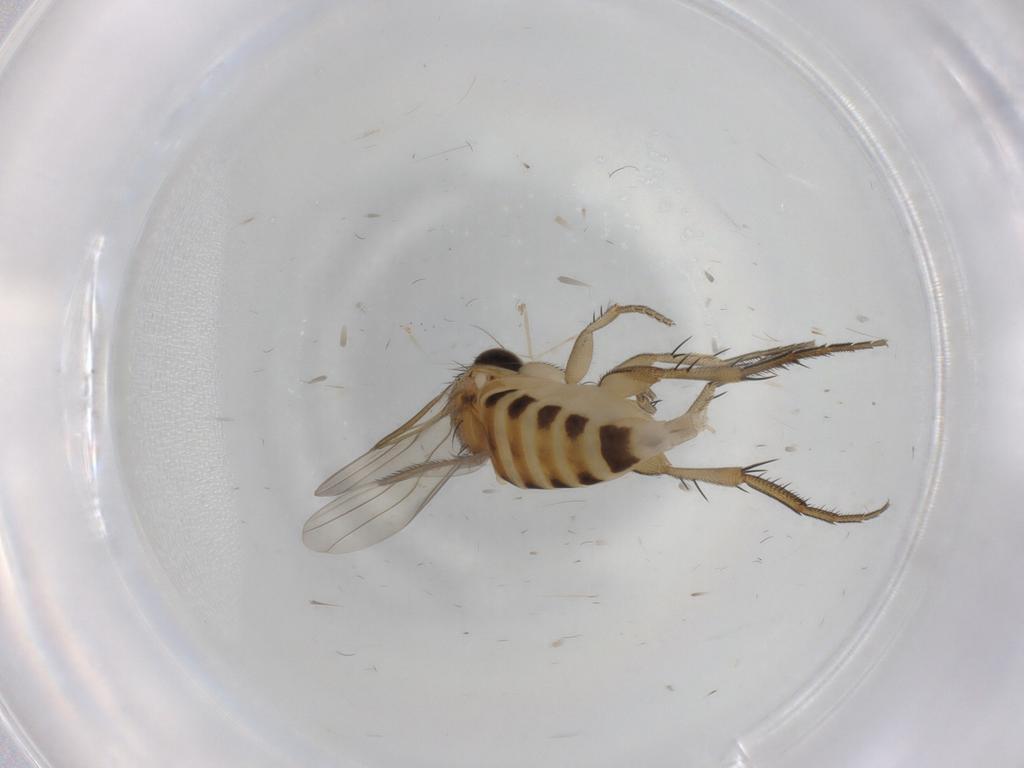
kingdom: Animalia
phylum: Arthropoda
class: Insecta
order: Diptera
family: Phoridae
